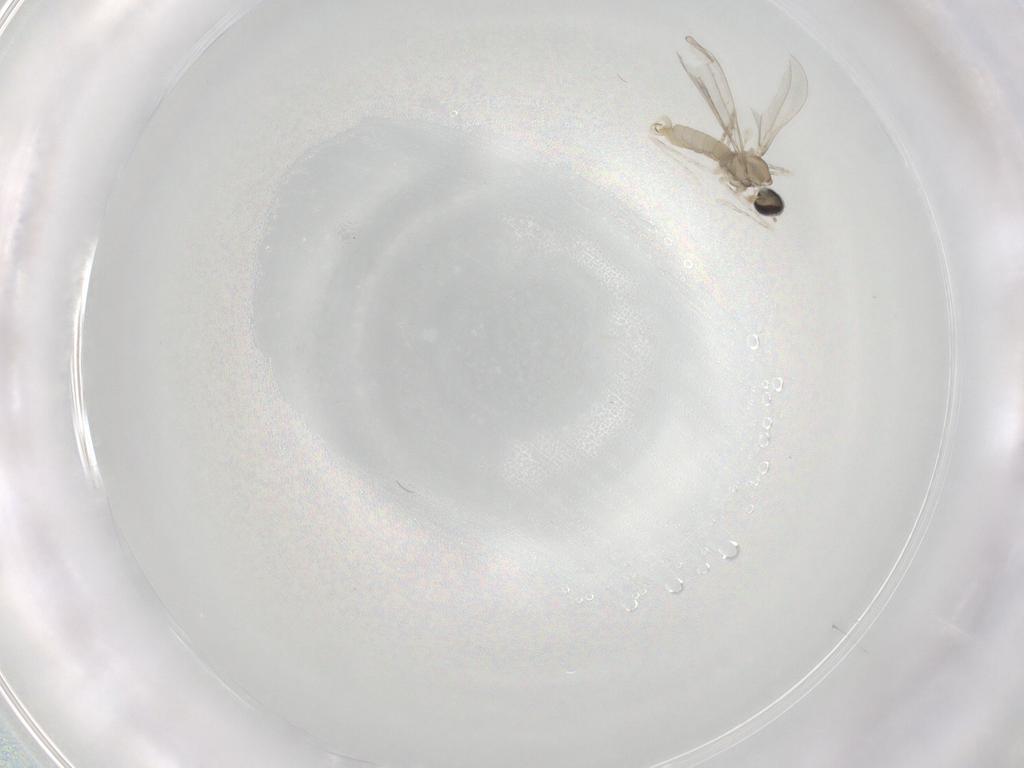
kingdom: Animalia
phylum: Arthropoda
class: Insecta
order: Diptera
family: Cecidomyiidae
